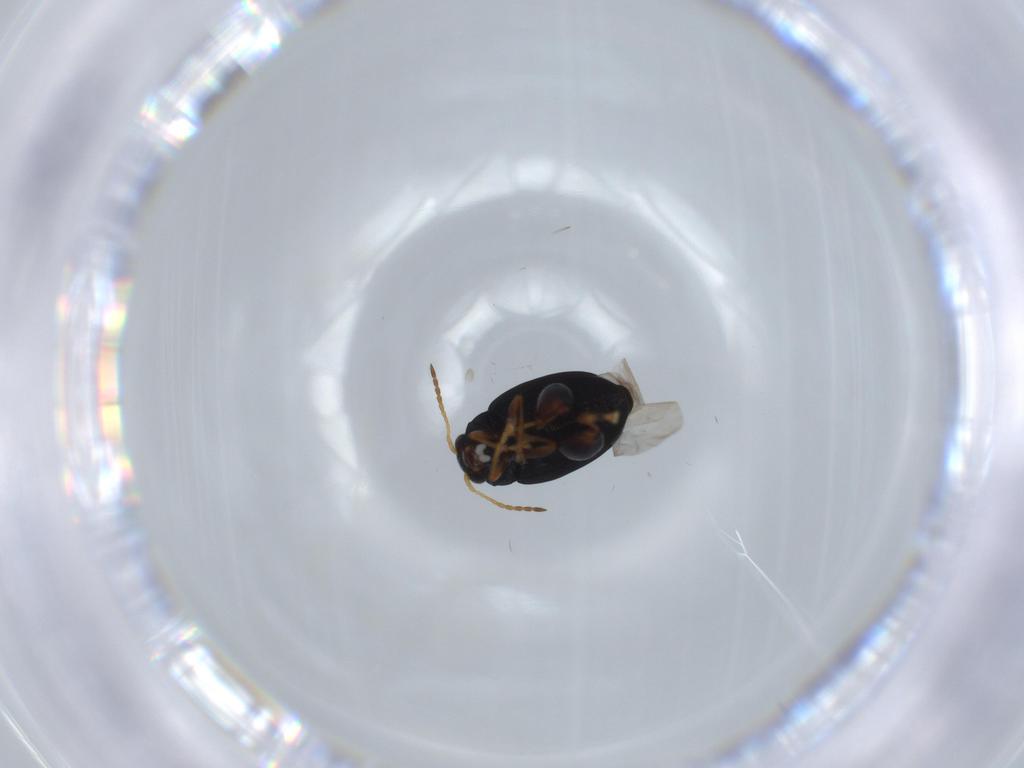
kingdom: Animalia
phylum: Arthropoda
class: Insecta
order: Coleoptera
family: Chrysomelidae
